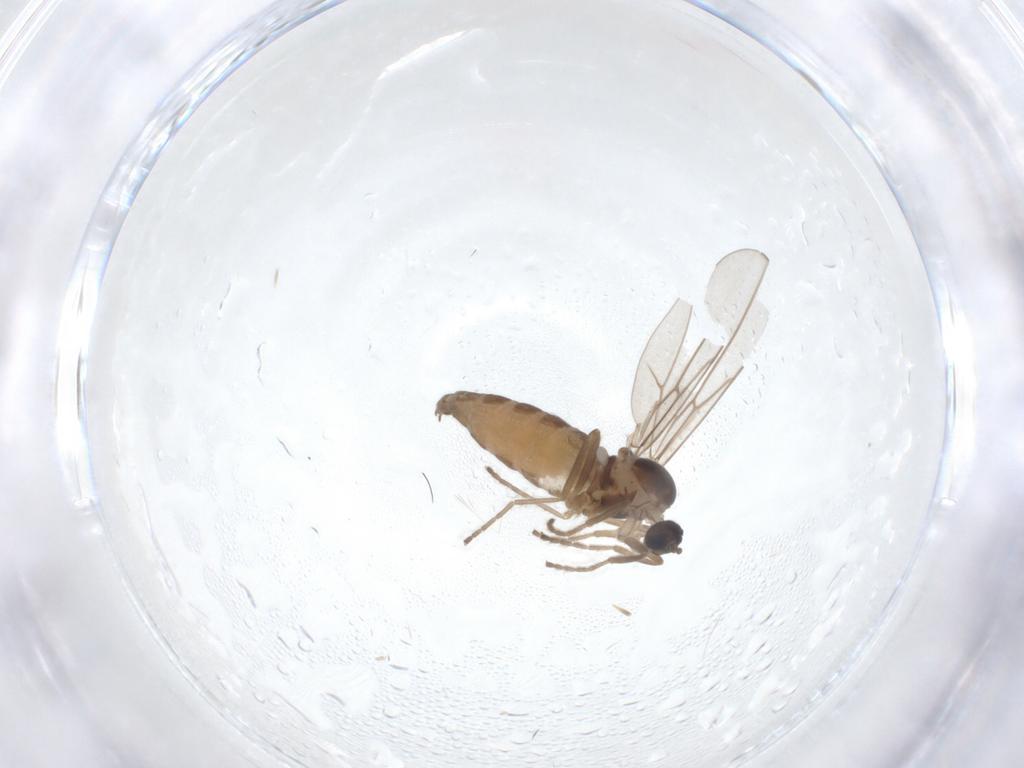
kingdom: Animalia
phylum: Arthropoda
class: Insecta
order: Diptera
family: Cecidomyiidae
